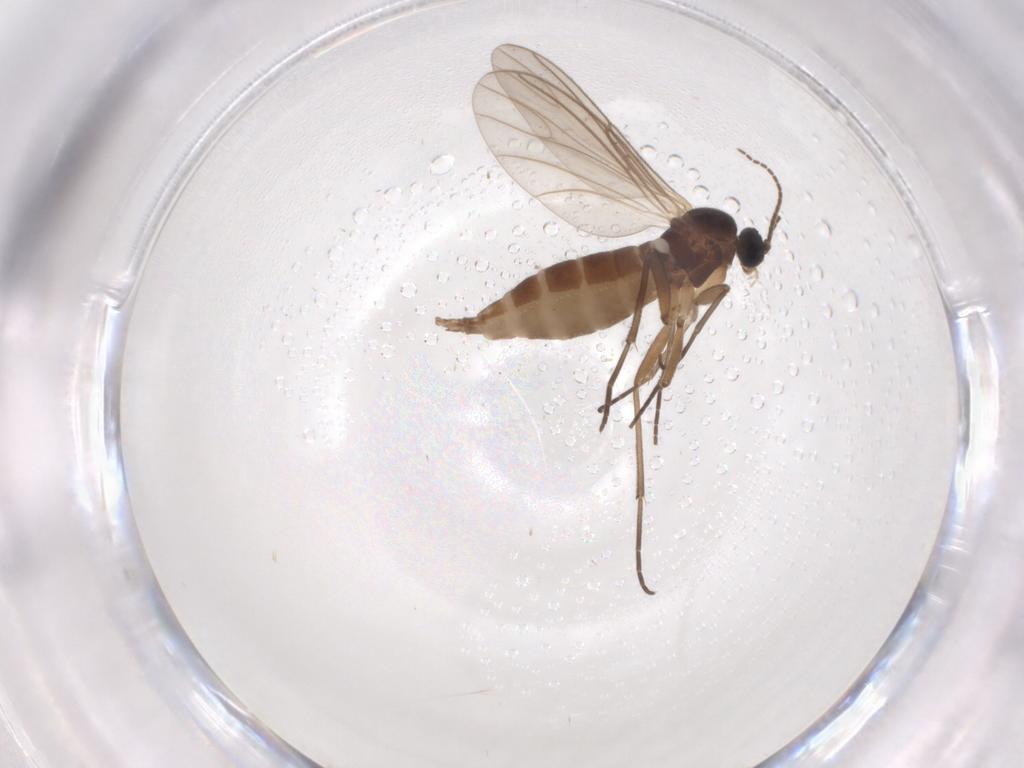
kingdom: Animalia
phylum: Arthropoda
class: Insecta
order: Diptera
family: Sciaridae
